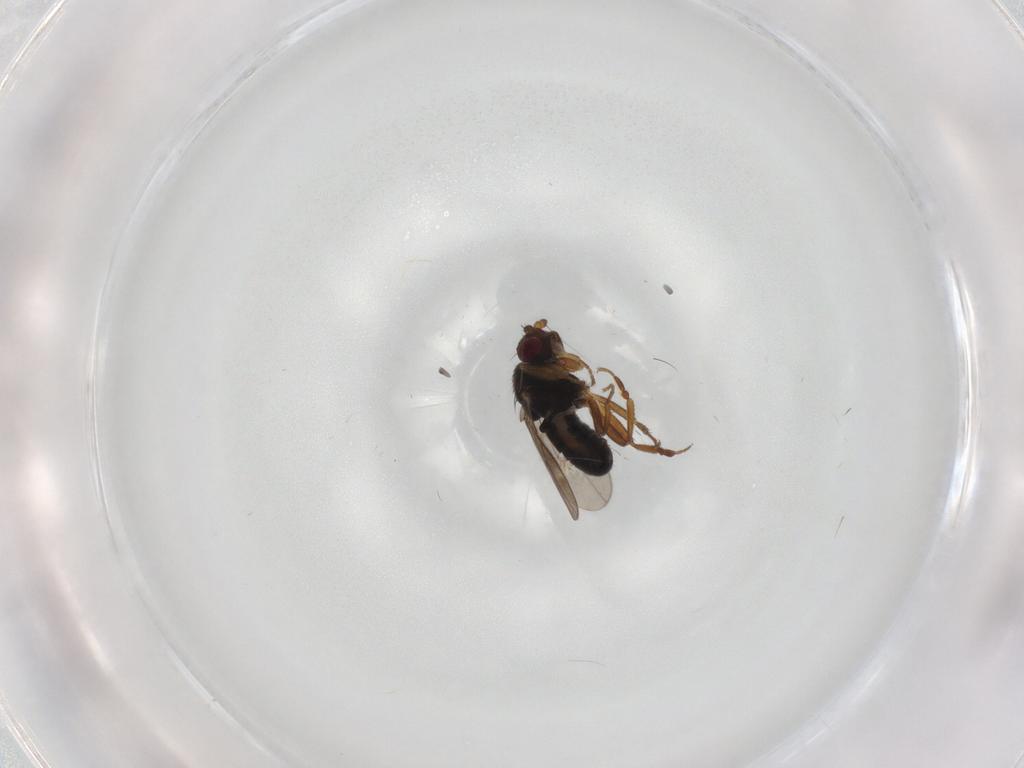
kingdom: Animalia
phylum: Arthropoda
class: Insecta
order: Diptera
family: Sphaeroceridae
